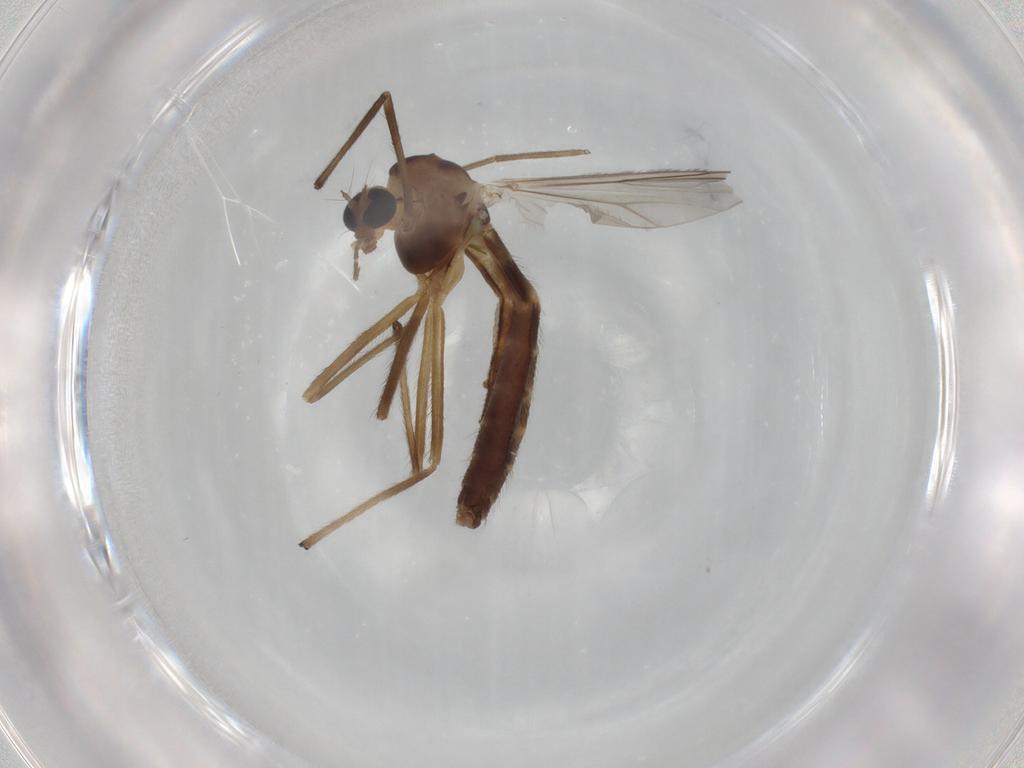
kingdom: Animalia
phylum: Arthropoda
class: Insecta
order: Diptera
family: Chironomidae
